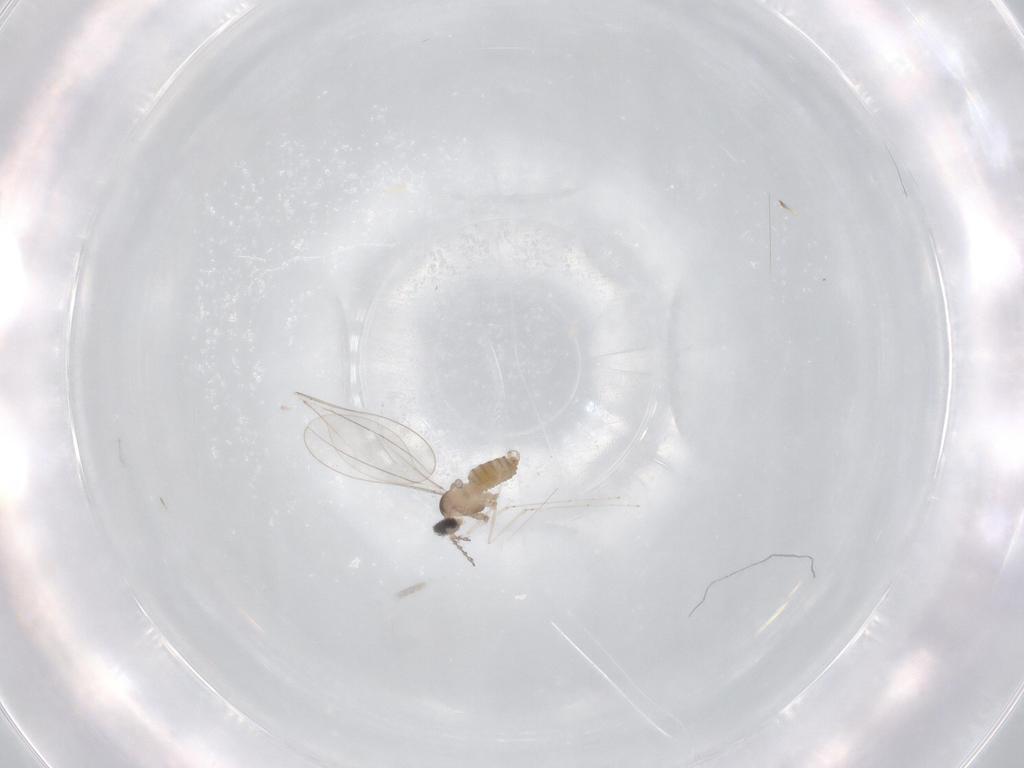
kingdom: Animalia
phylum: Arthropoda
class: Insecta
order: Diptera
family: Cecidomyiidae
